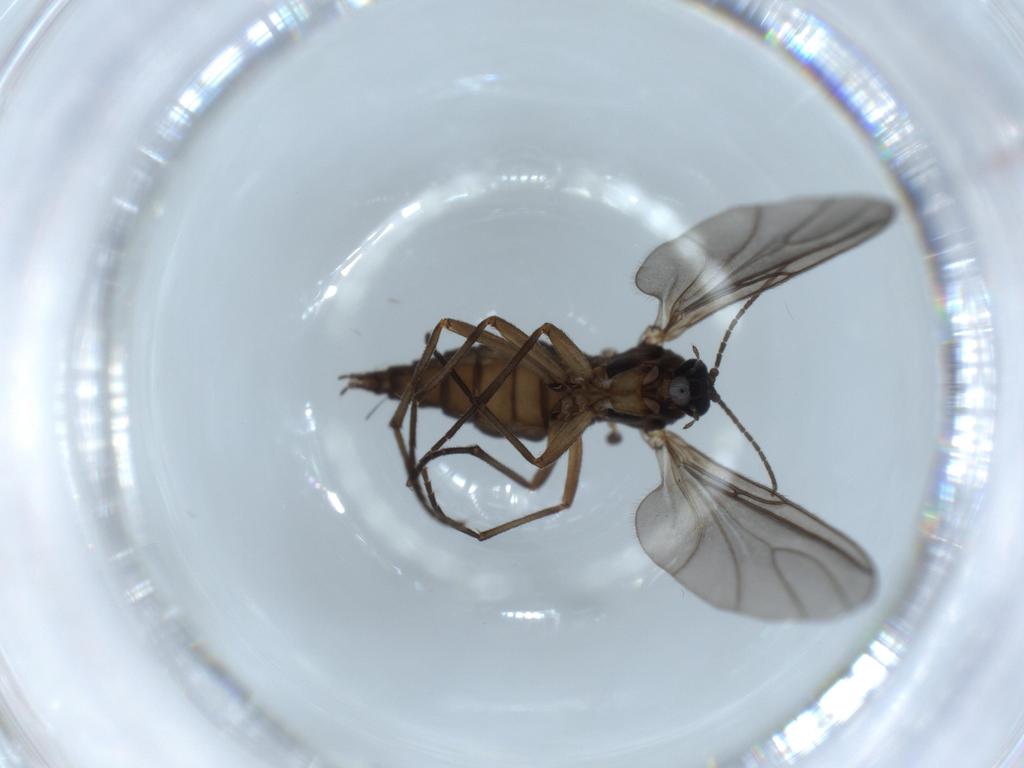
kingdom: Animalia
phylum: Arthropoda
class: Insecta
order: Diptera
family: Sciaridae
